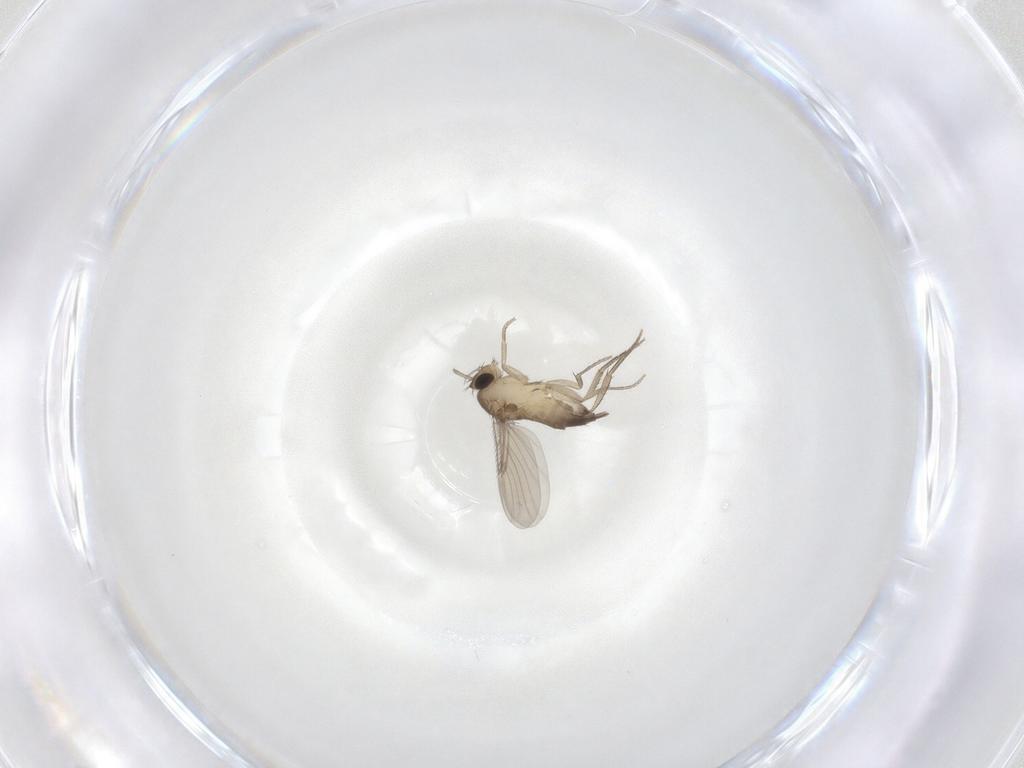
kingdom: Animalia
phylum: Arthropoda
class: Insecta
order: Diptera
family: Phoridae
